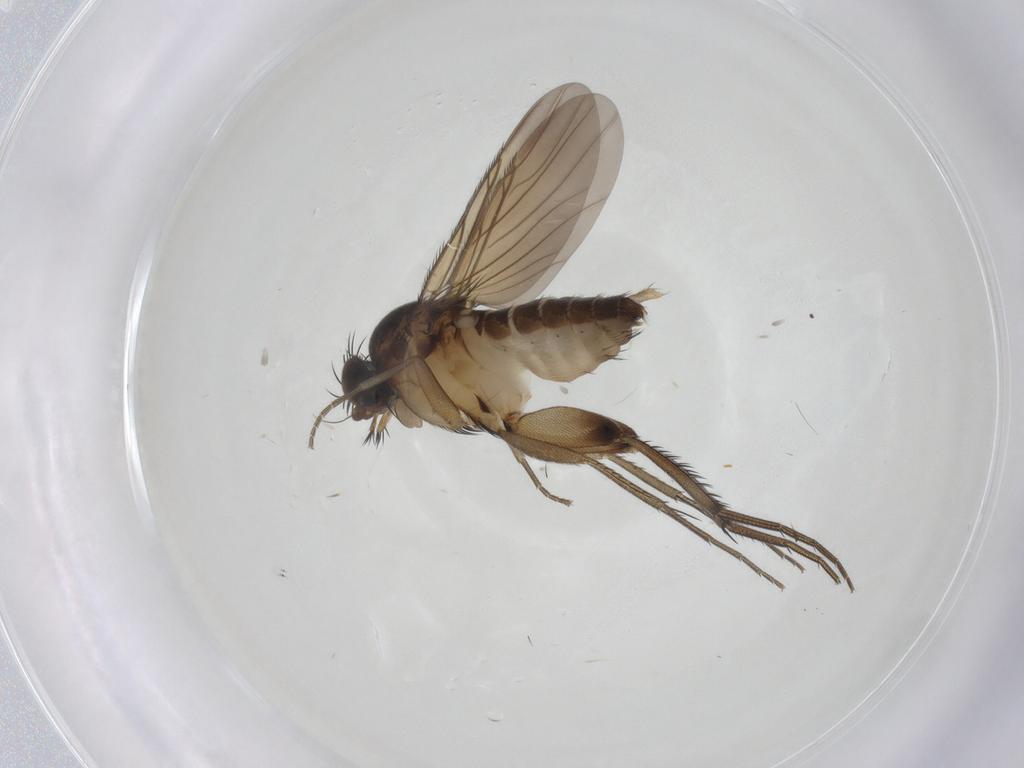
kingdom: Animalia
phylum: Arthropoda
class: Insecta
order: Diptera
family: Phoridae
